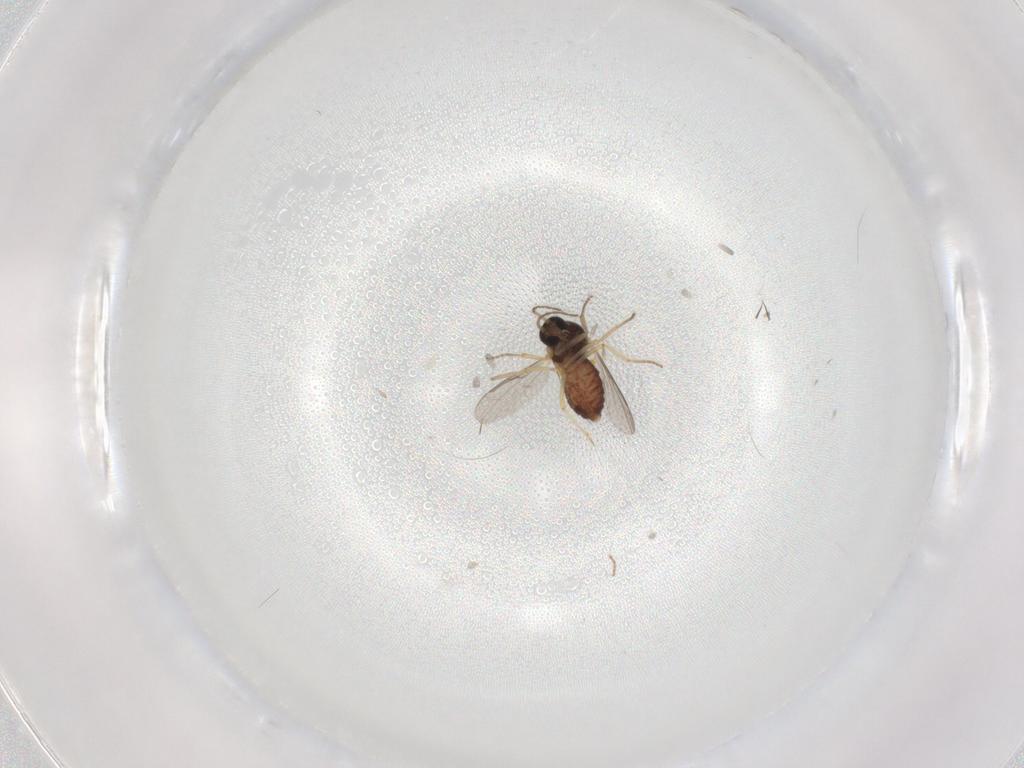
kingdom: Animalia
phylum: Arthropoda
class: Insecta
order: Diptera
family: Ceratopogonidae
